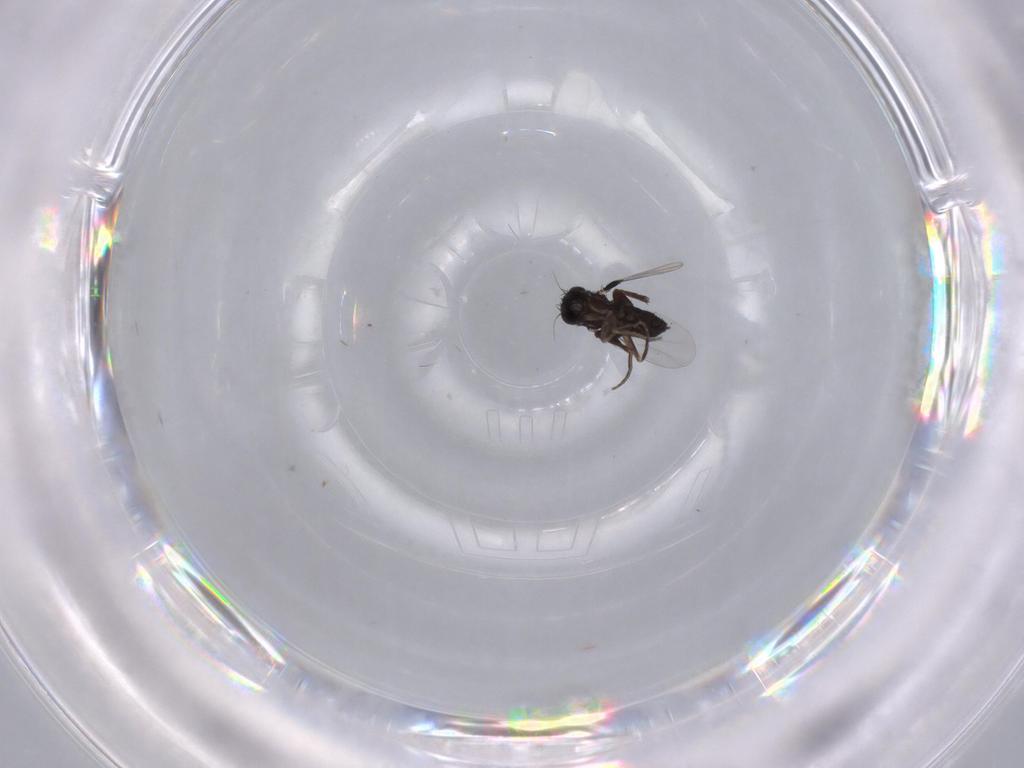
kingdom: Animalia
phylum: Arthropoda
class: Insecta
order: Diptera
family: Phoridae
